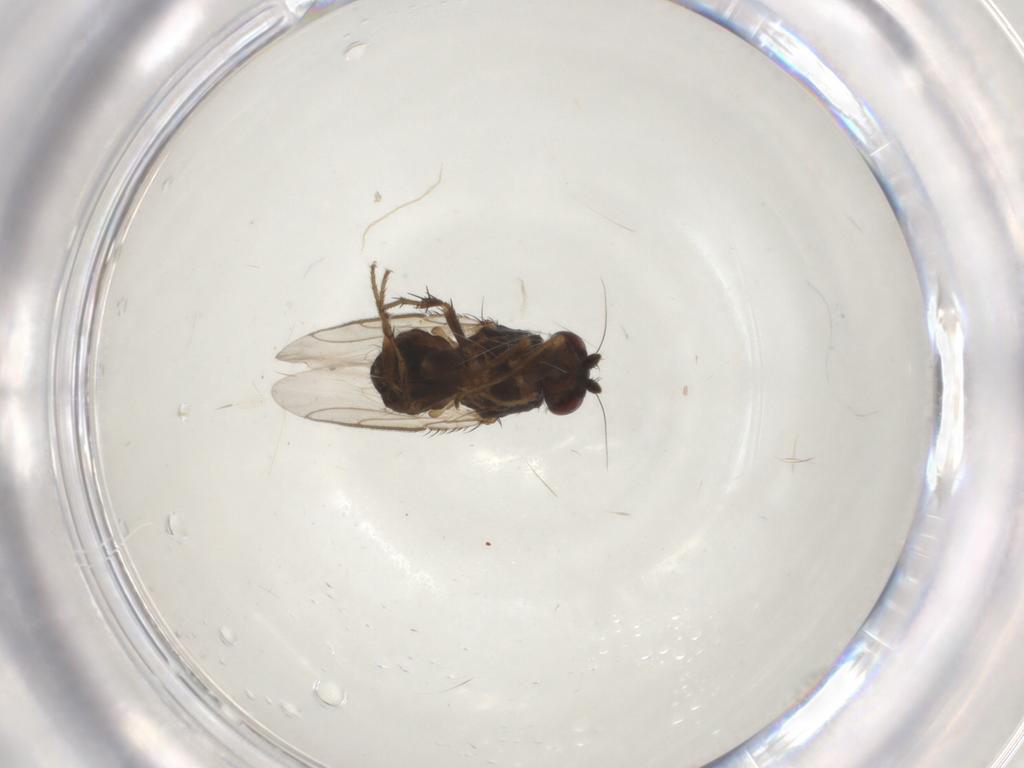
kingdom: Animalia
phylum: Arthropoda
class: Insecta
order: Diptera
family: Sphaeroceridae
